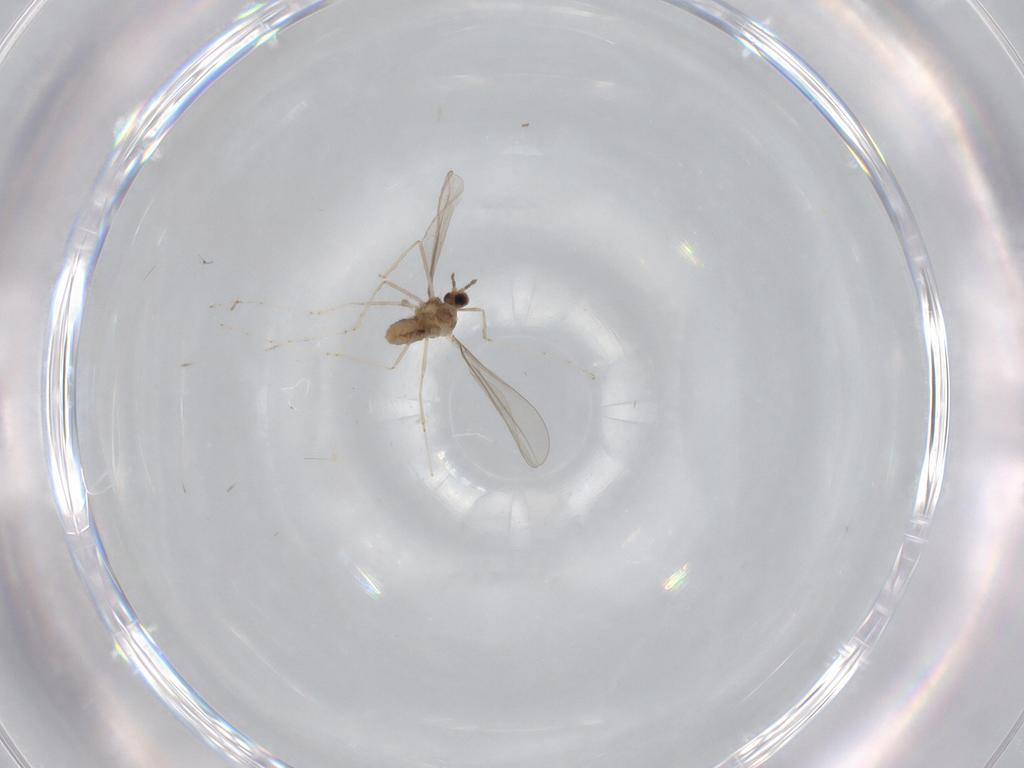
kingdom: Animalia
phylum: Arthropoda
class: Insecta
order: Diptera
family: Cecidomyiidae
